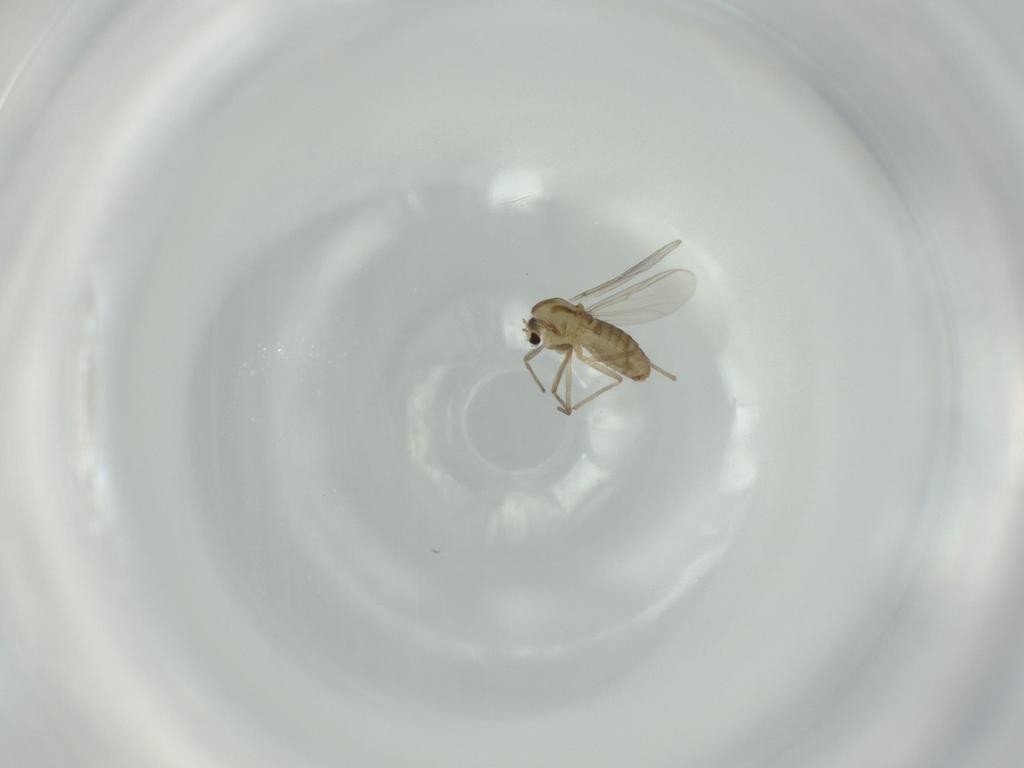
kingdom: Animalia
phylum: Arthropoda
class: Insecta
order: Diptera
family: Chironomidae
